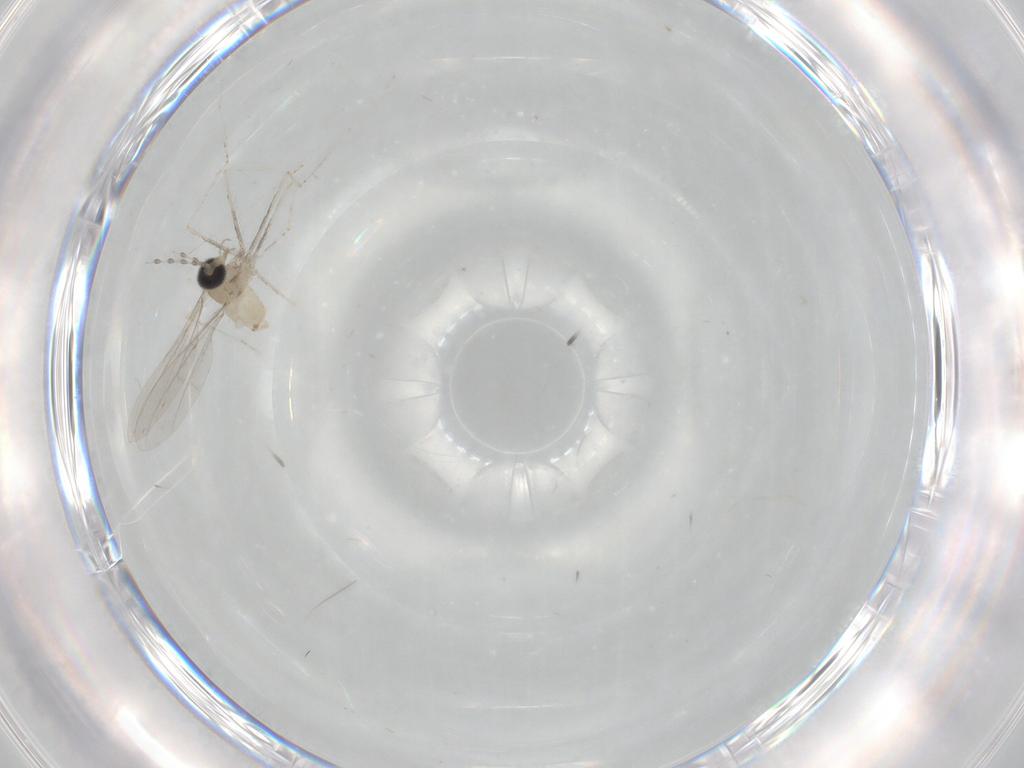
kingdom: Animalia
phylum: Arthropoda
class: Insecta
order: Diptera
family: Cecidomyiidae
